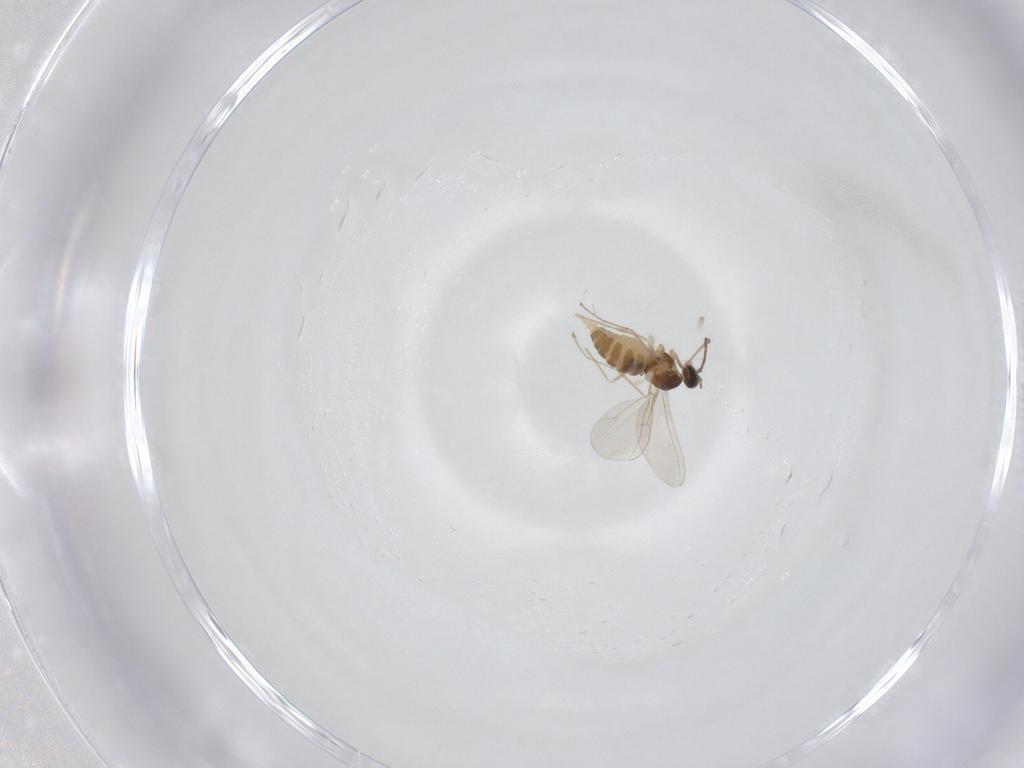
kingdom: Animalia
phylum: Arthropoda
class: Insecta
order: Diptera
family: Cecidomyiidae
